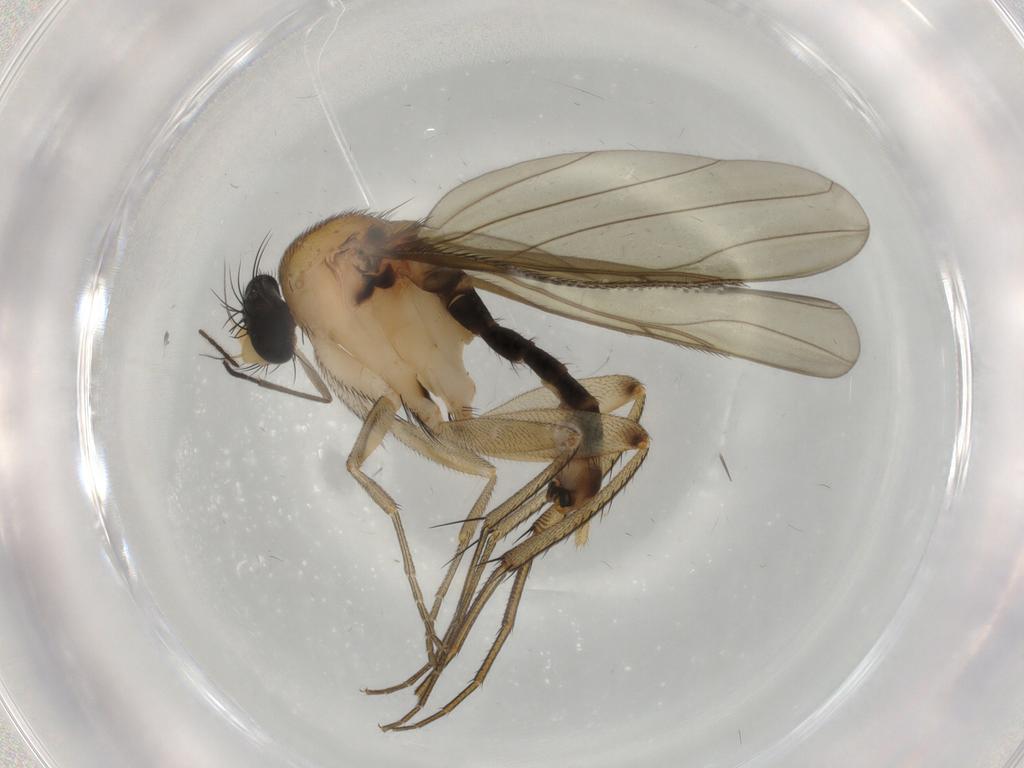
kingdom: Animalia
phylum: Arthropoda
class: Insecta
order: Diptera
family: Phoridae
